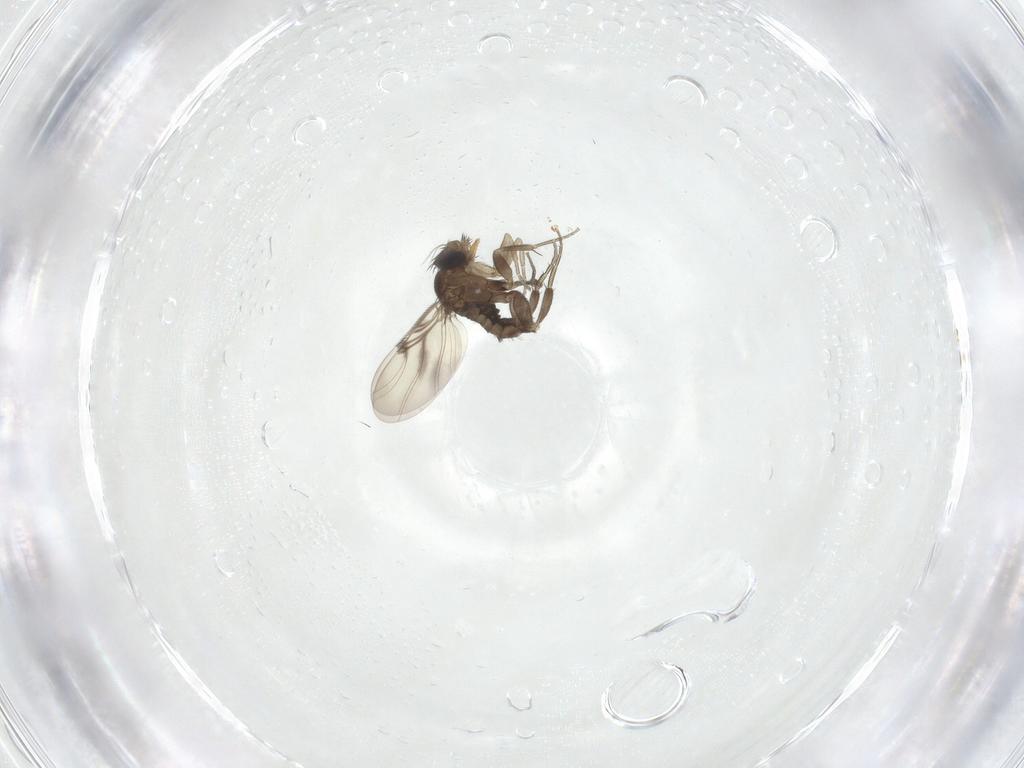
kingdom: Animalia
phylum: Arthropoda
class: Insecta
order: Diptera
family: Phoridae
